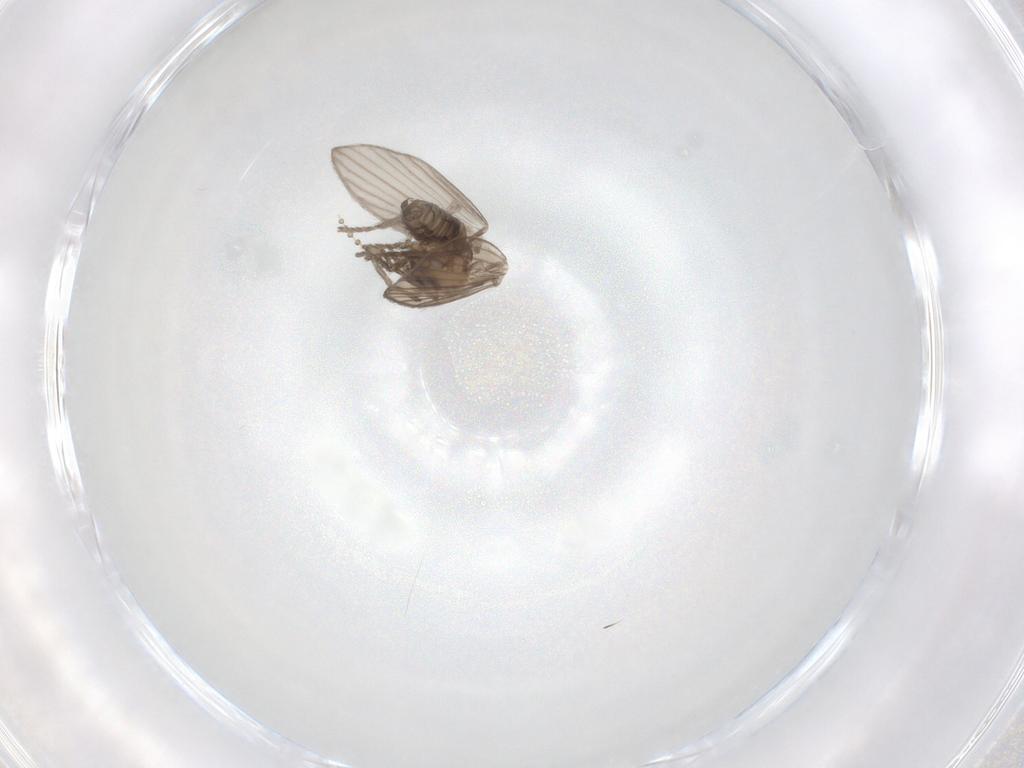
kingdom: Animalia
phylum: Arthropoda
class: Insecta
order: Diptera
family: Psychodidae
